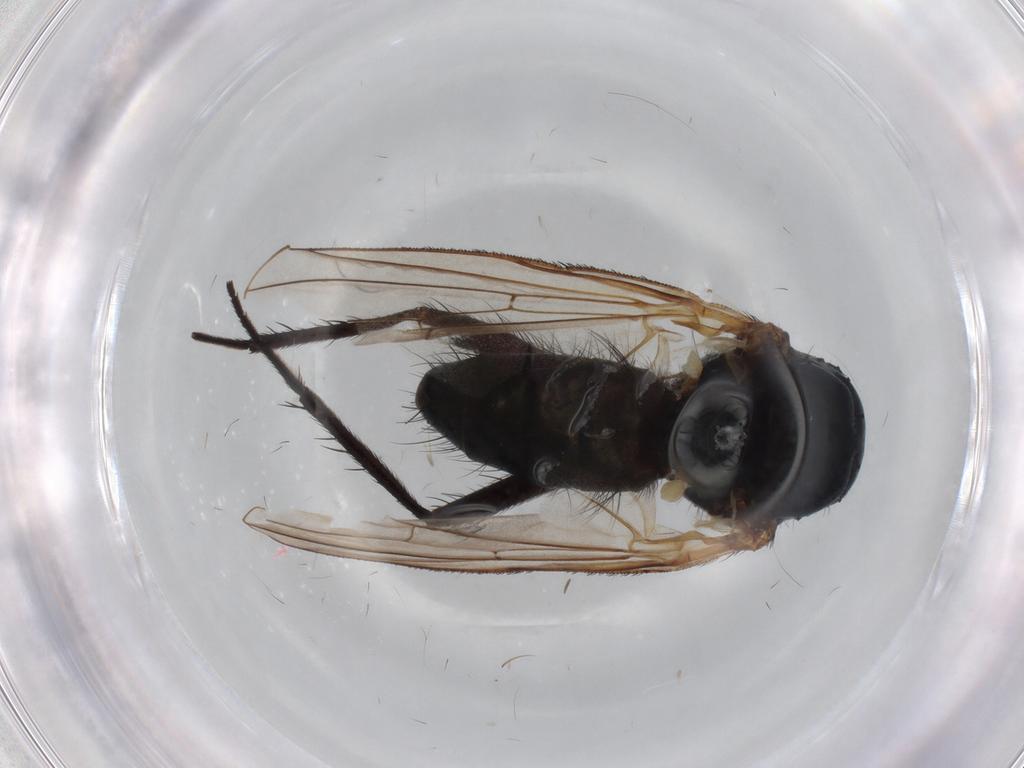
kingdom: Animalia
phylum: Arthropoda
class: Insecta
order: Diptera
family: Anthomyiidae
